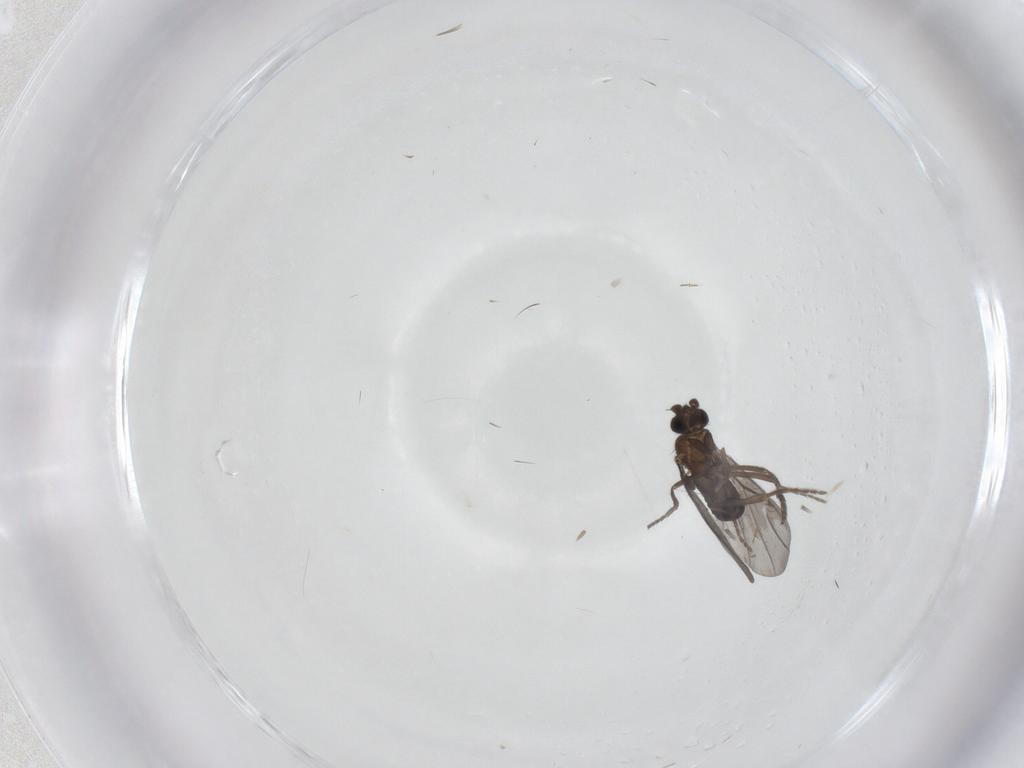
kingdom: Animalia
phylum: Arthropoda
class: Insecta
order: Diptera
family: Phoridae
